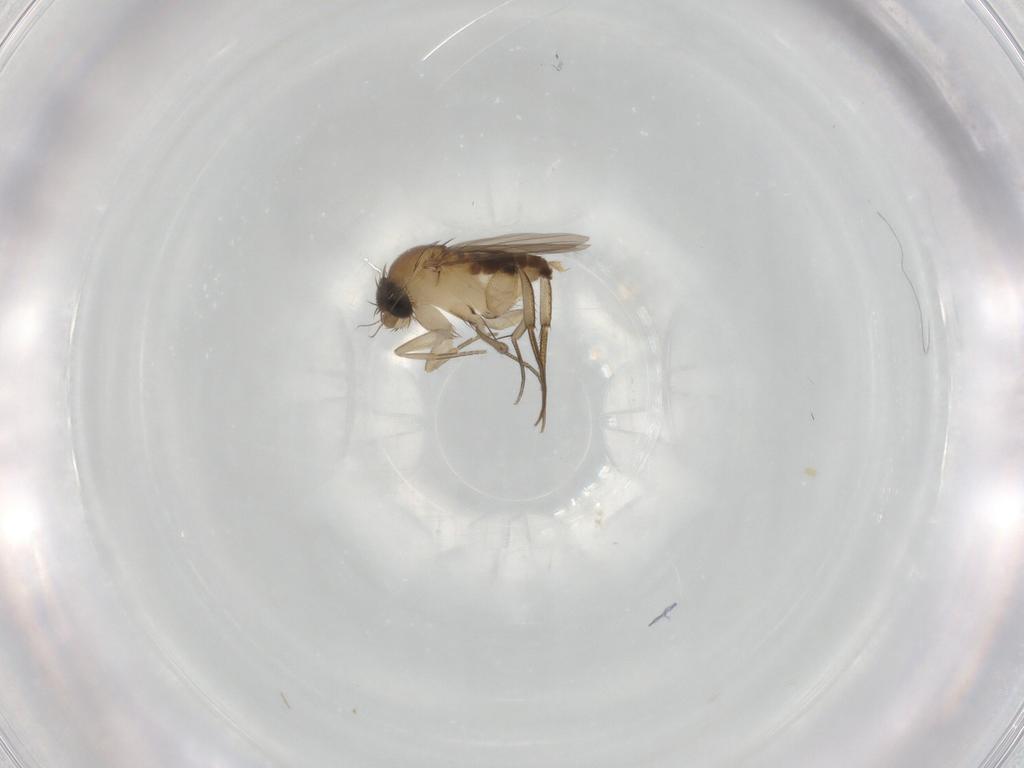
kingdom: Animalia
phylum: Arthropoda
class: Insecta
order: Diptera
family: Phoridae
